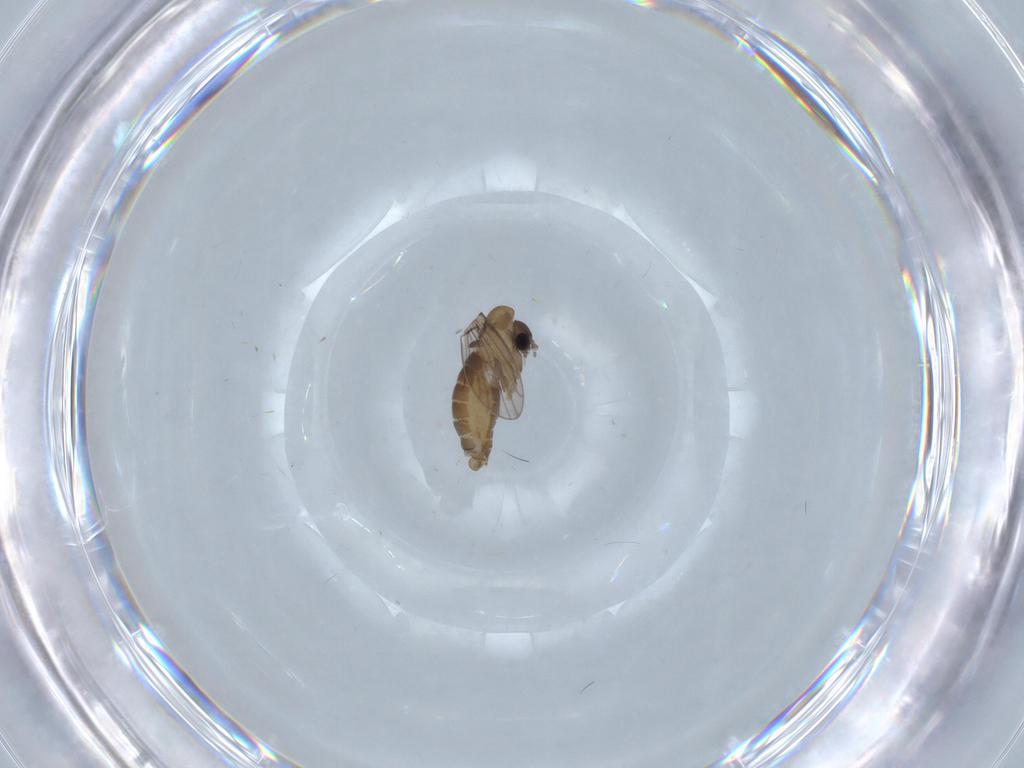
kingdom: Animalia
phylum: Arthropoda
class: Insecta
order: Diptera
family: Psychodidae
